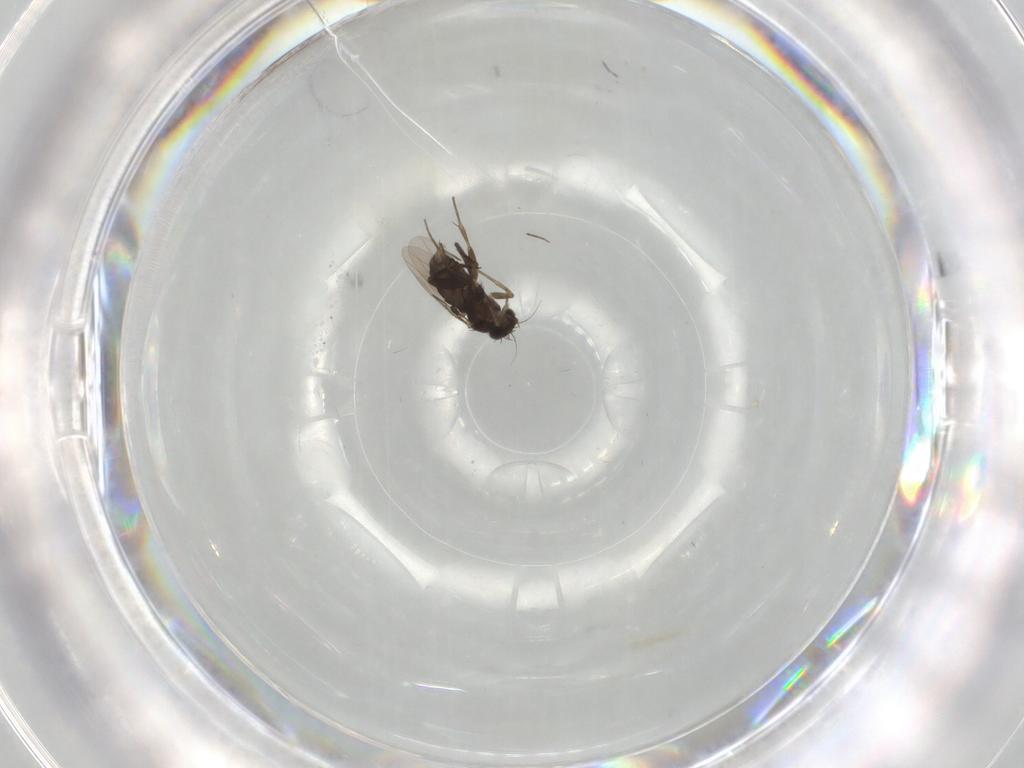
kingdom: Animalia
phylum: Arthropoda
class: Insecta
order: Diptera
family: Phoridae
